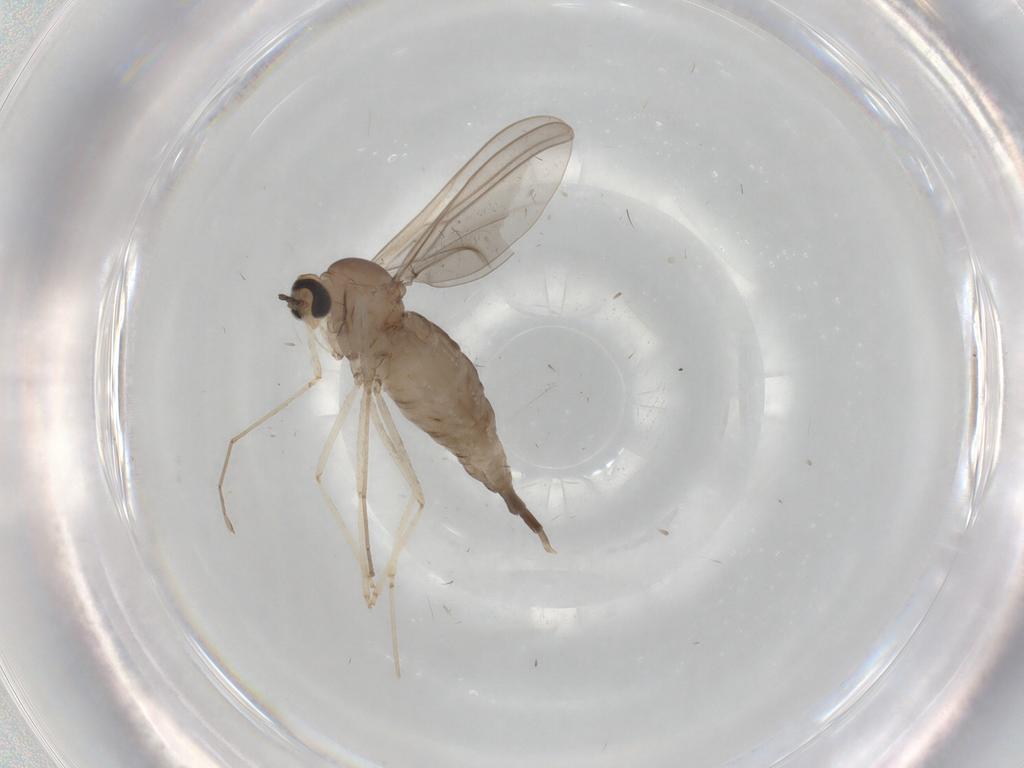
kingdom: Animalia
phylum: Arthropoda
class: Insecta
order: Diptera
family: Cecidomyiidae
